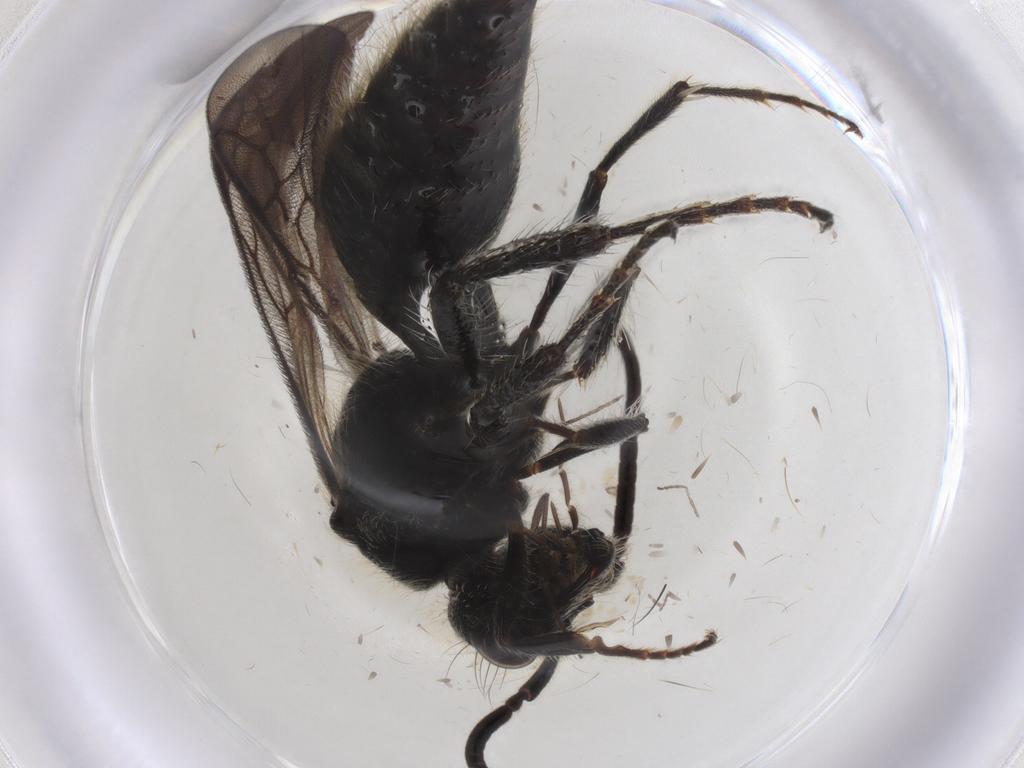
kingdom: Animalia
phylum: Arthropoda
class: Insecta
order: Hymenoptera
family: Mutillidae
